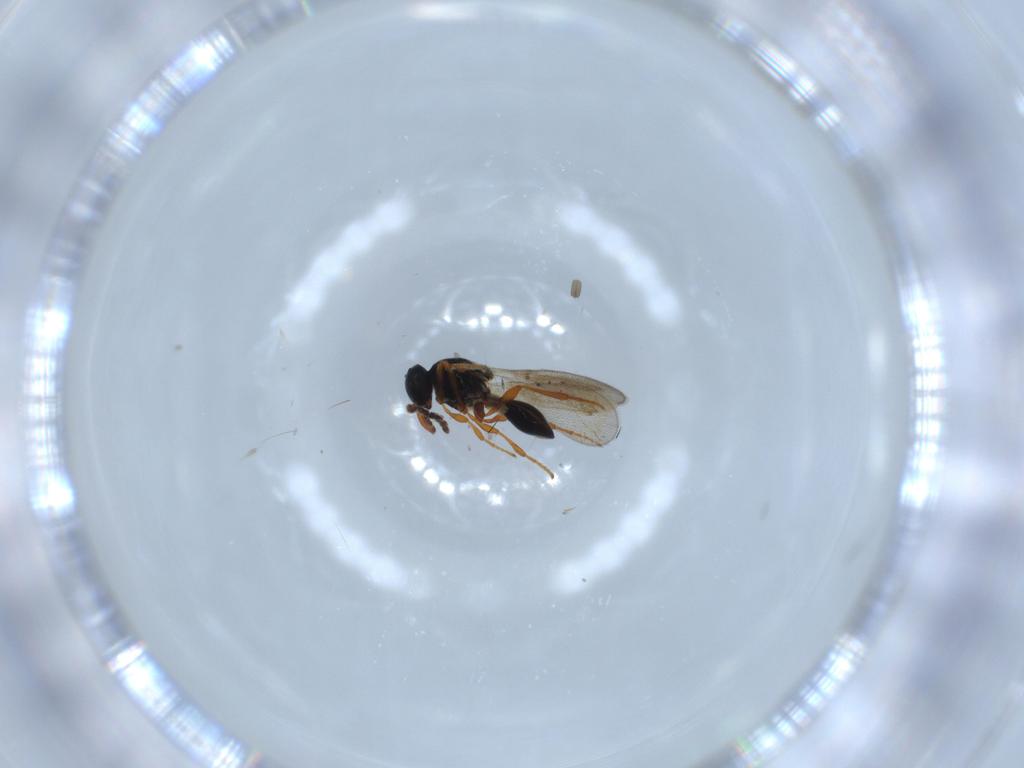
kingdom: Animalia
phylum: Arthropoda
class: Insecta
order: Hymenoptera
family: Platygastridae
